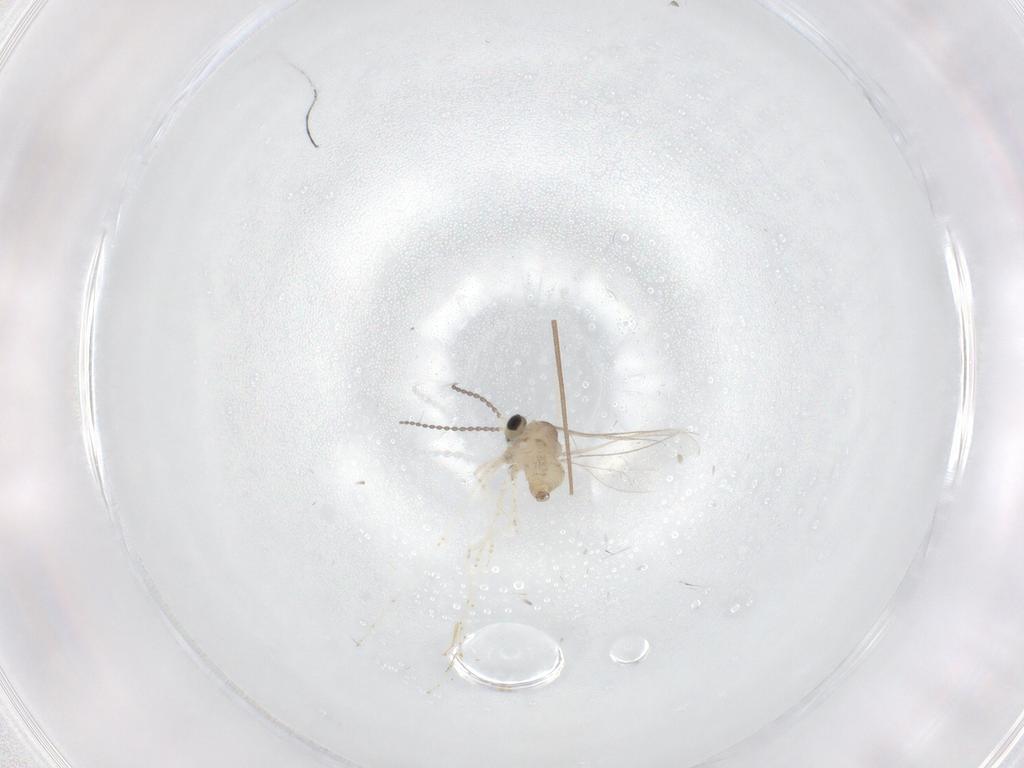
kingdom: Animalia
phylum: Arthropoda
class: Insecta
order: Diptera
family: Cecidomyiidae
